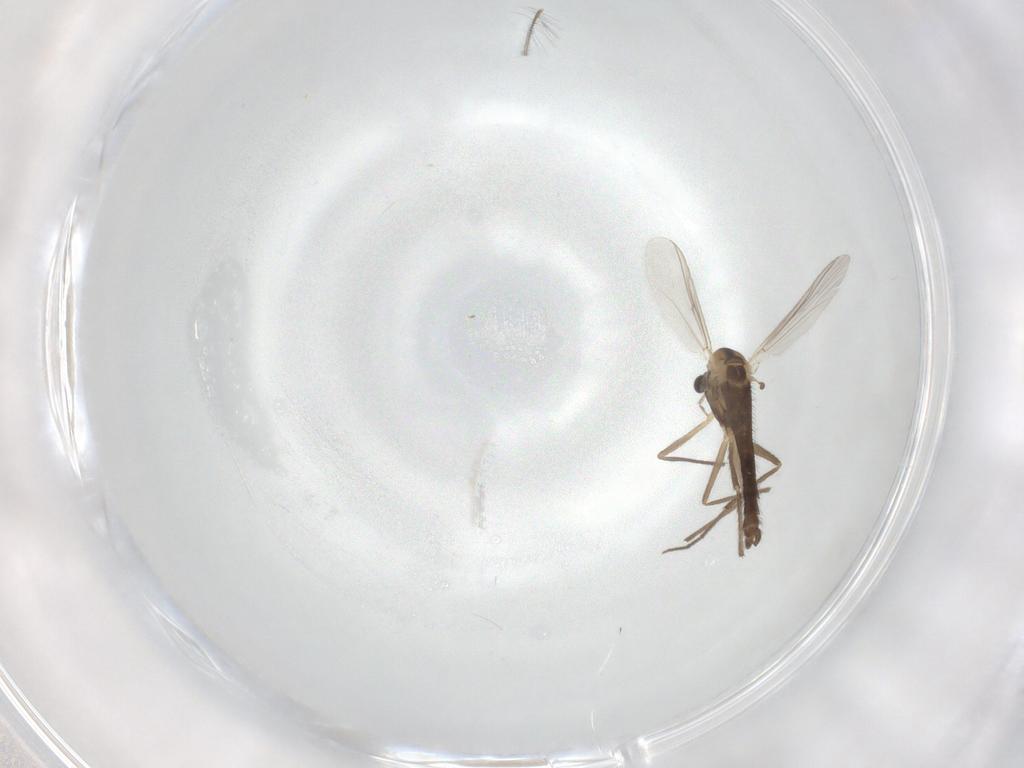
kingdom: Animalia
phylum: Arthropoda
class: Insecta
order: Diptera
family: Chironomidae
